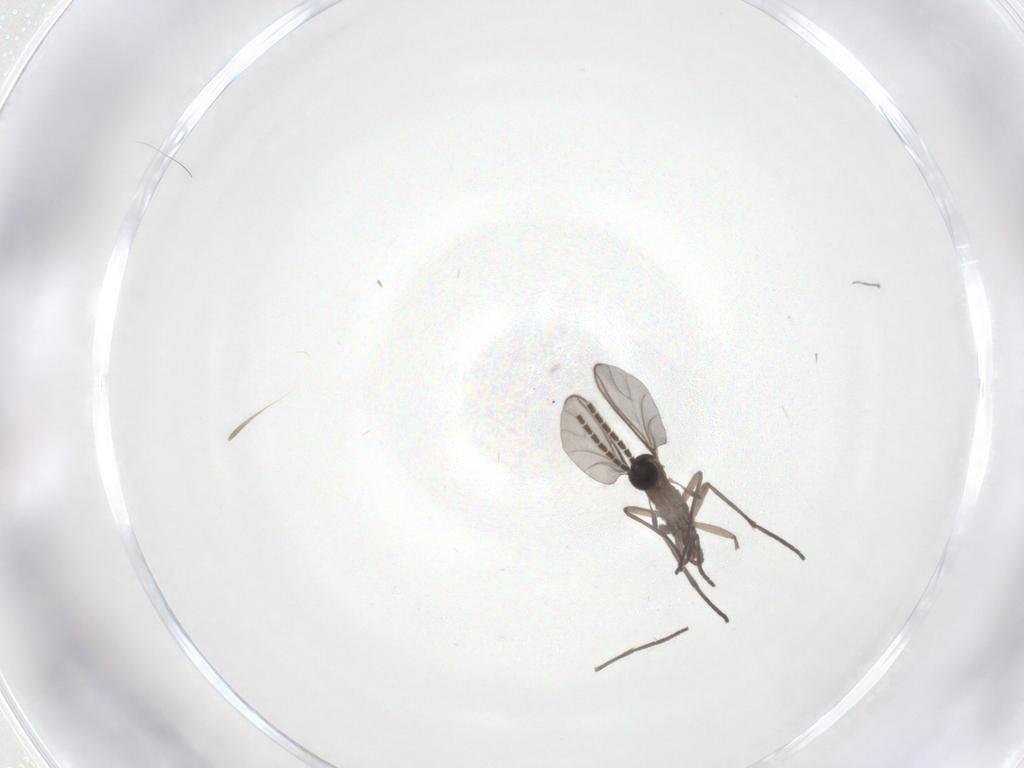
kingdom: Animalia
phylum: Arthropoda
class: Insecta
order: Diptera
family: Sciaridae
